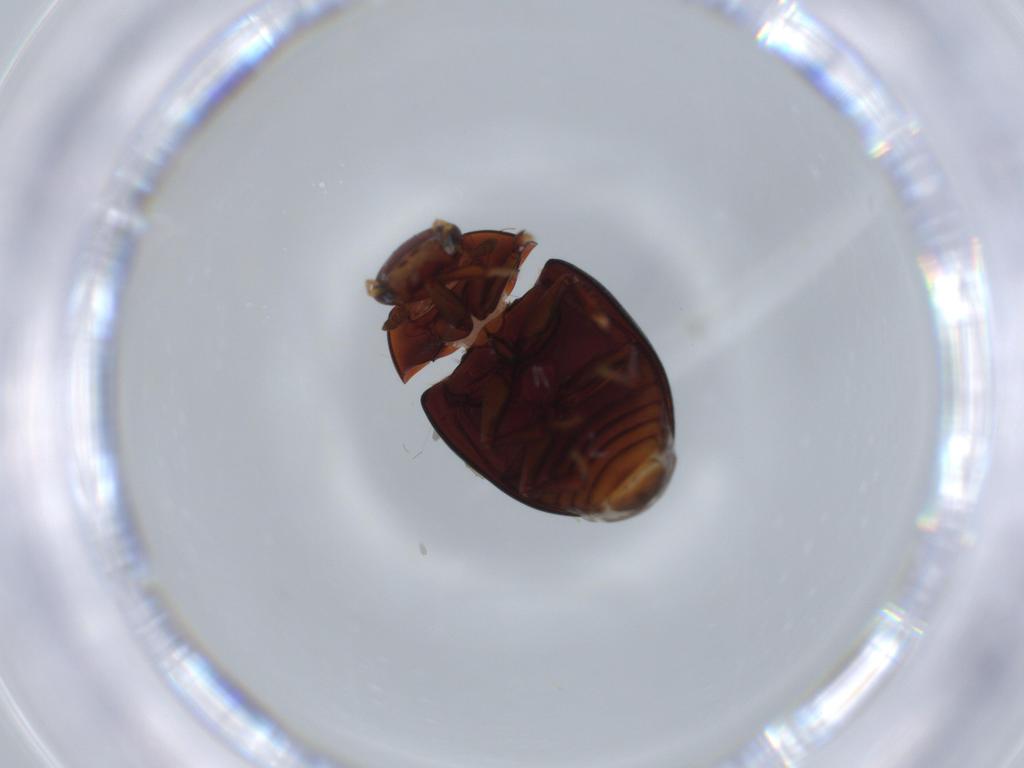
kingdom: Animalia
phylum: Arthropoda
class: Insecta
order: Coleoptera
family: Hydrophilidae
